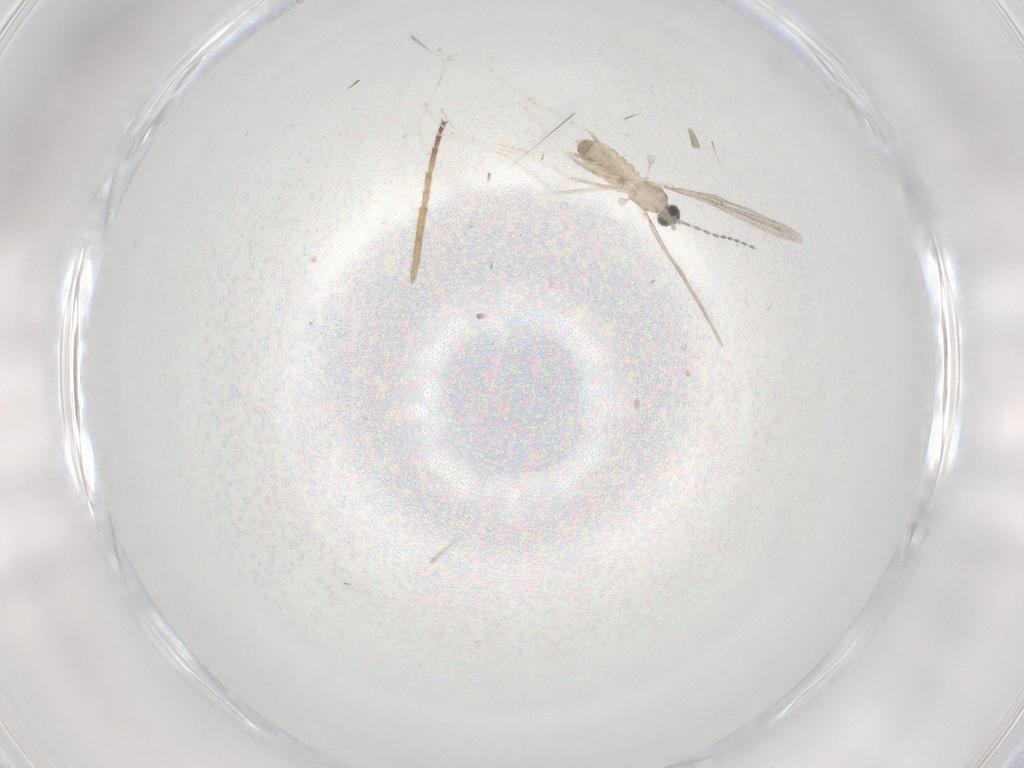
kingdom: Animalia
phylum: Arthropoda
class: Insecta
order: Diptera
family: Cecidomyiidae
